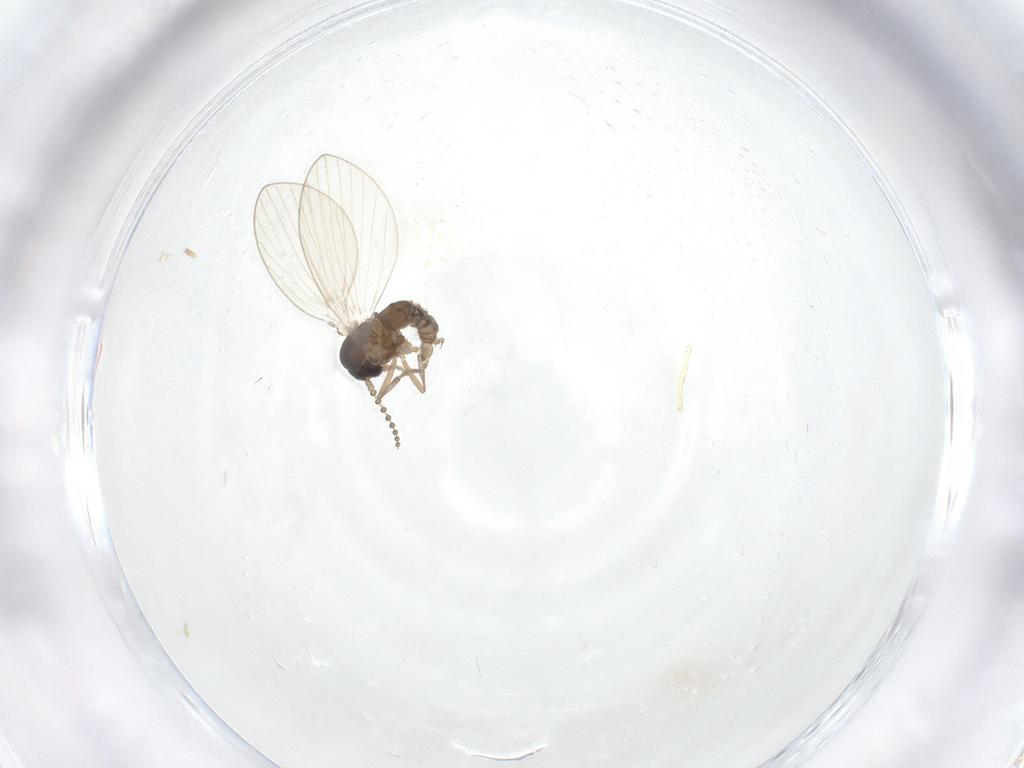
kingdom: Animalia
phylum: Arthropoda
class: Insecta
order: Diptera
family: Psychodidae
